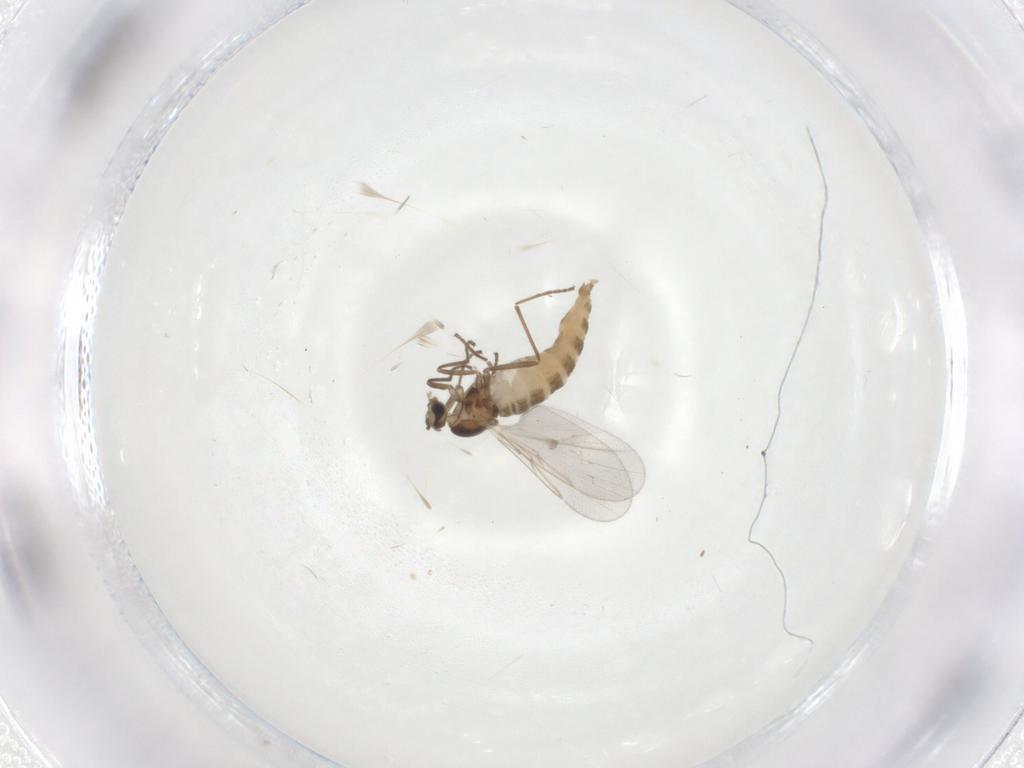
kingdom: Animalia
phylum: Arthropoda
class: Insecta
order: Diptera
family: Cecidomyiidae
